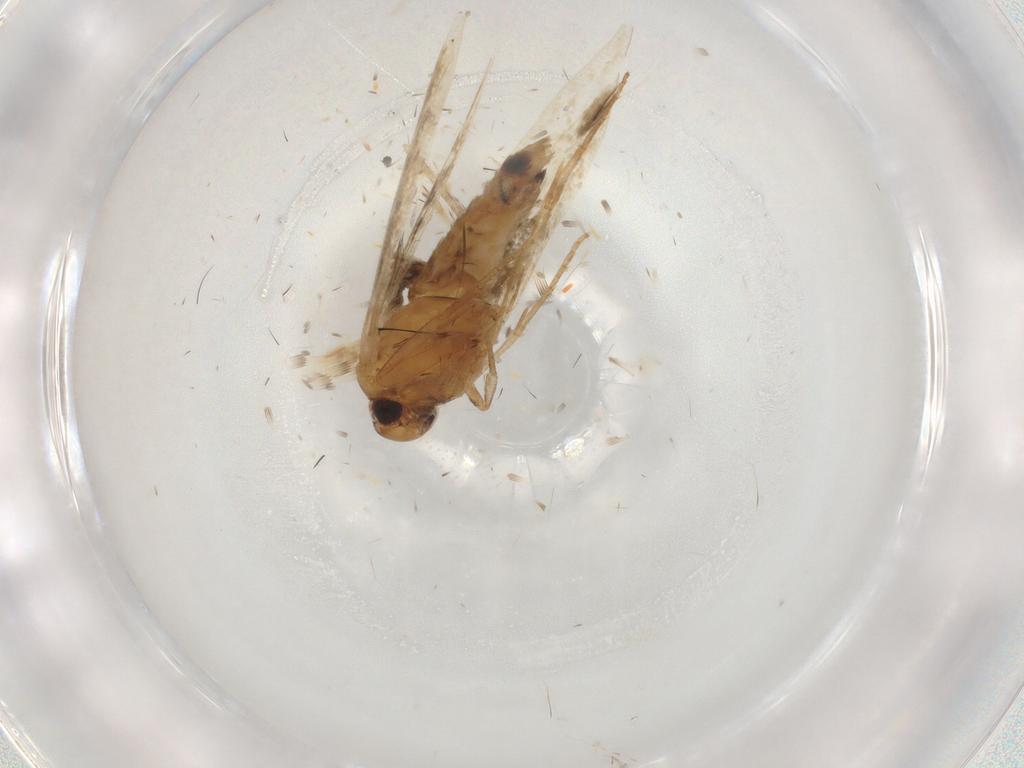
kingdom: Animalia
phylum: Arthropoda
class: Insecta
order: Lepidoptera
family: Cosmopterigidae
